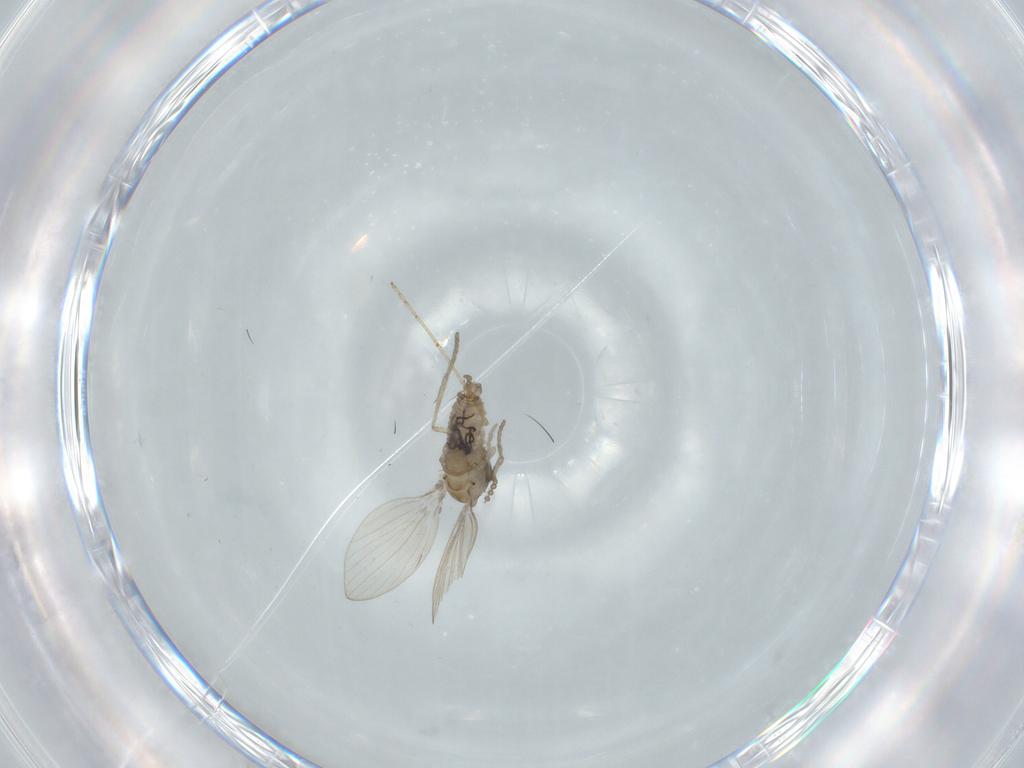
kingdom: Animalia
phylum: Arthropoda
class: Insecta
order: Diptera
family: Psychodidae
